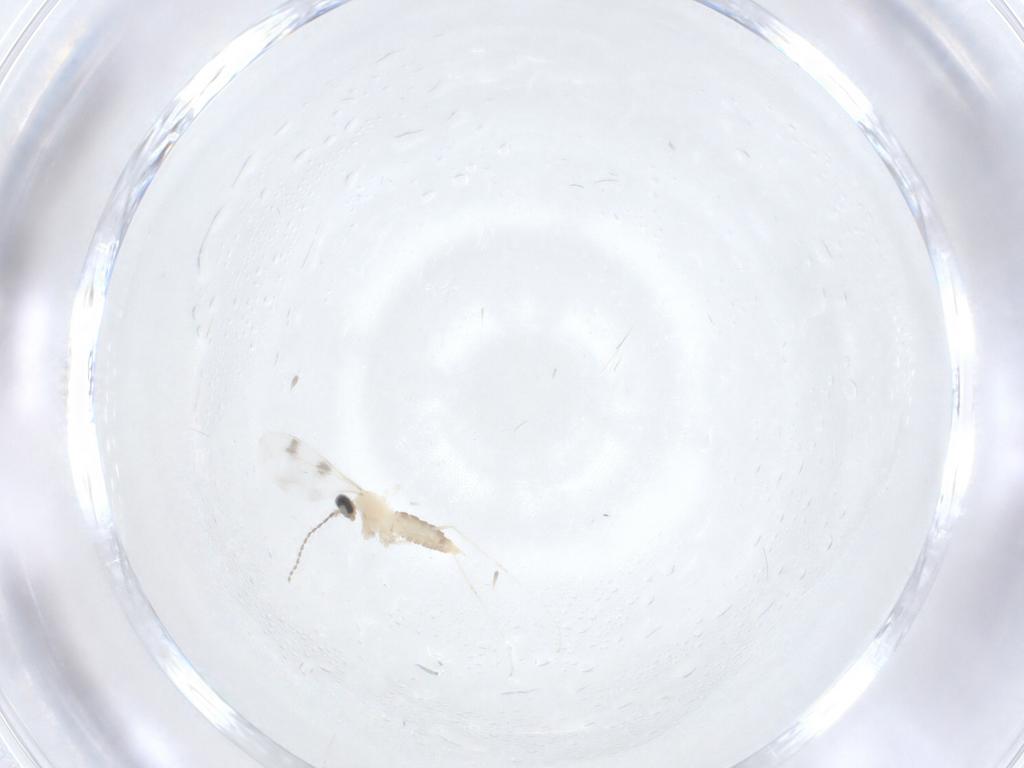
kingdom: Animalia
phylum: Arthropoda
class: Insecta
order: Diptera
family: Cecidomyiidae
